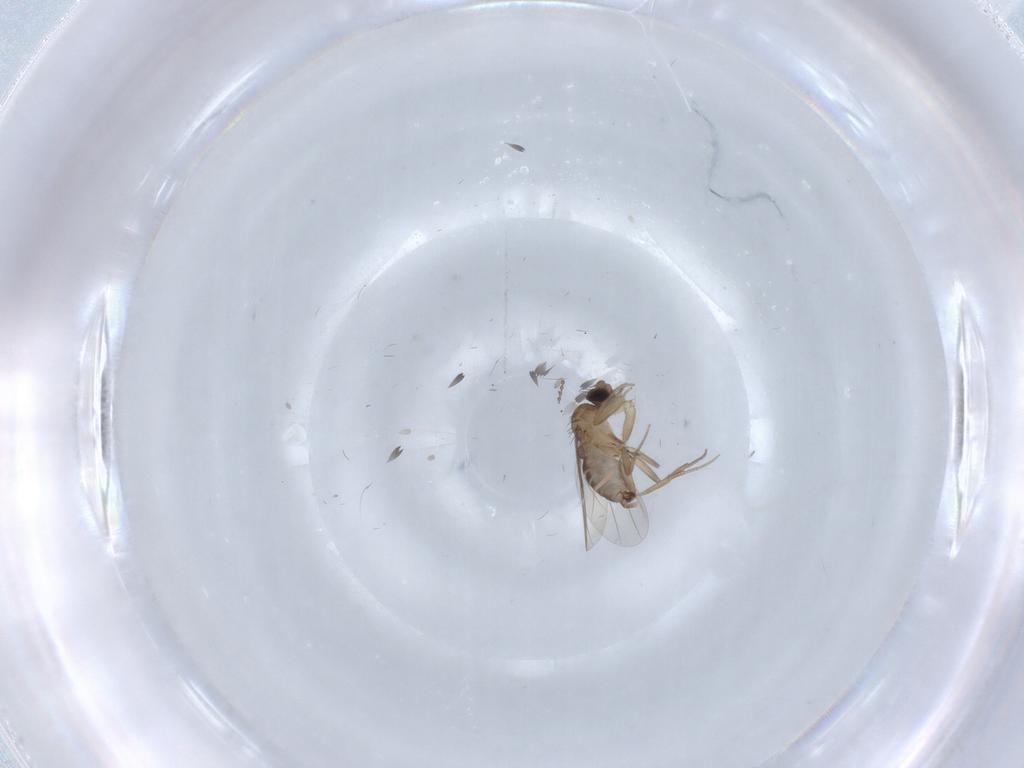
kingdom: Animalia
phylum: Arthropoda
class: Insecta
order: Diptera
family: Cecidomyiidae
